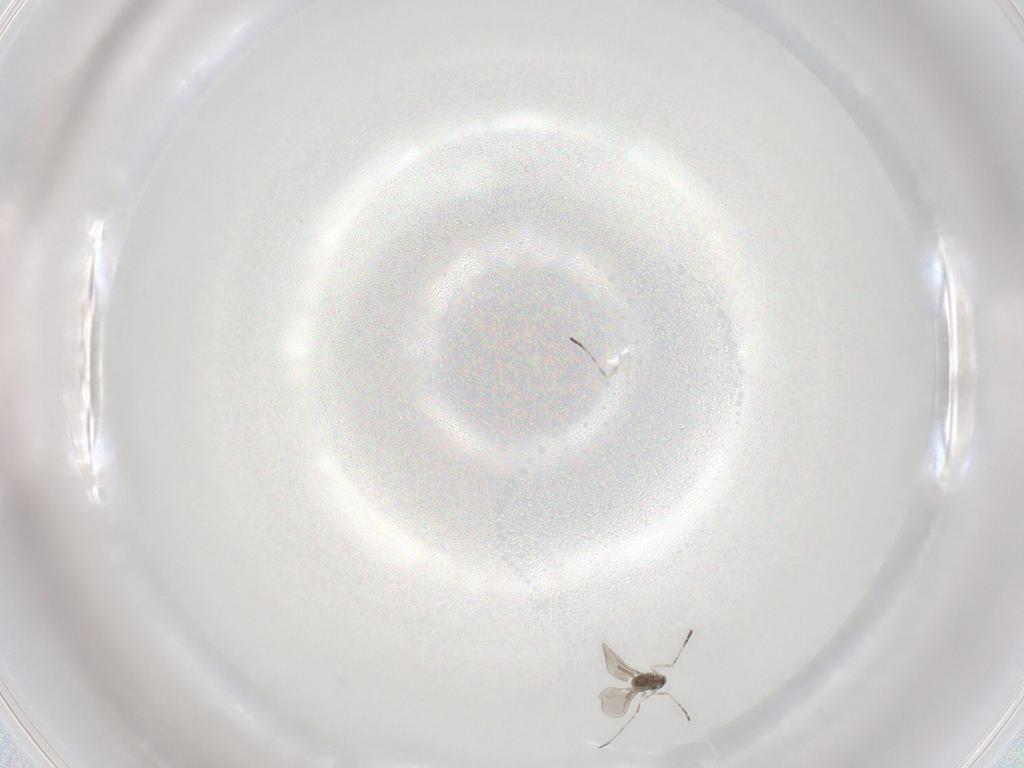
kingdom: Animalia
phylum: Arthropoda
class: Insecta
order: Diptera
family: Cecidomyiidae
